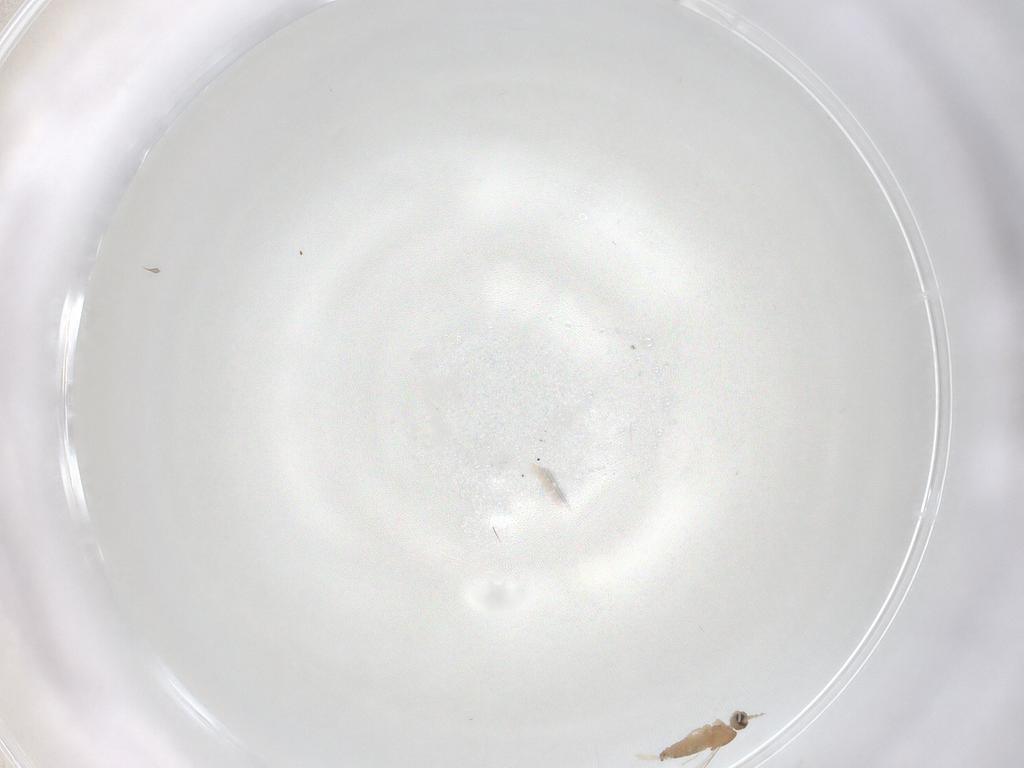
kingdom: Animalia
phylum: Arthropoda
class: Insecta
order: Diptera
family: Cecidomyiidae
